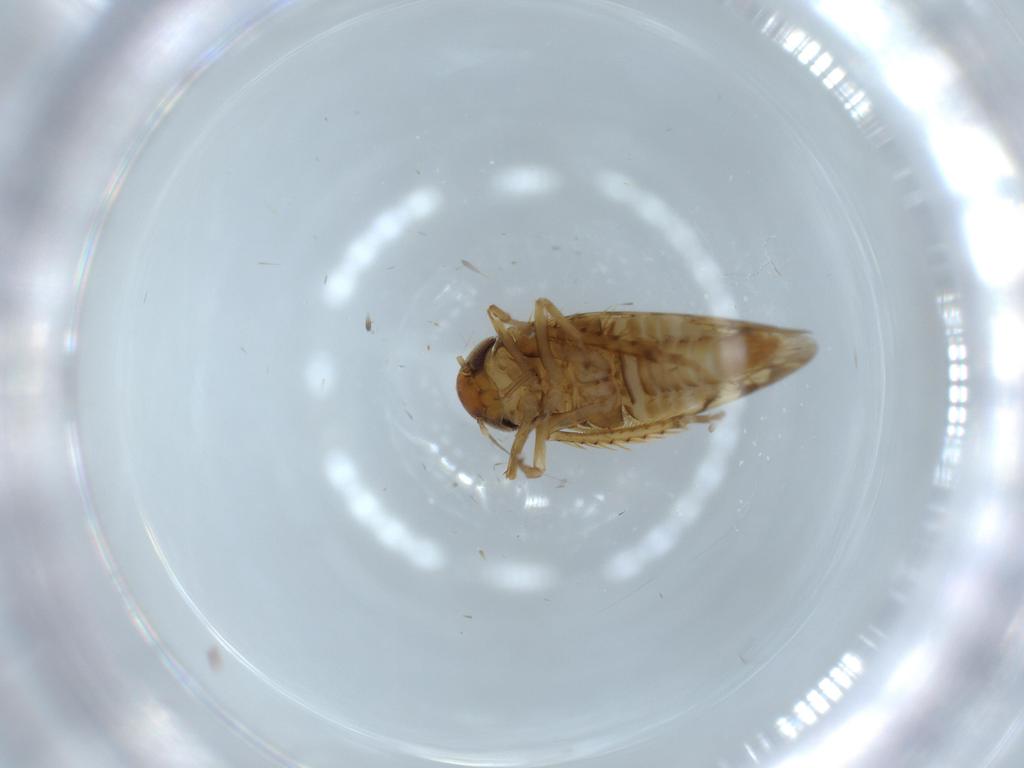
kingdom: Animalia
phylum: Arthropoda
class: Insecta
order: Hemiptera
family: Cicadellidae
